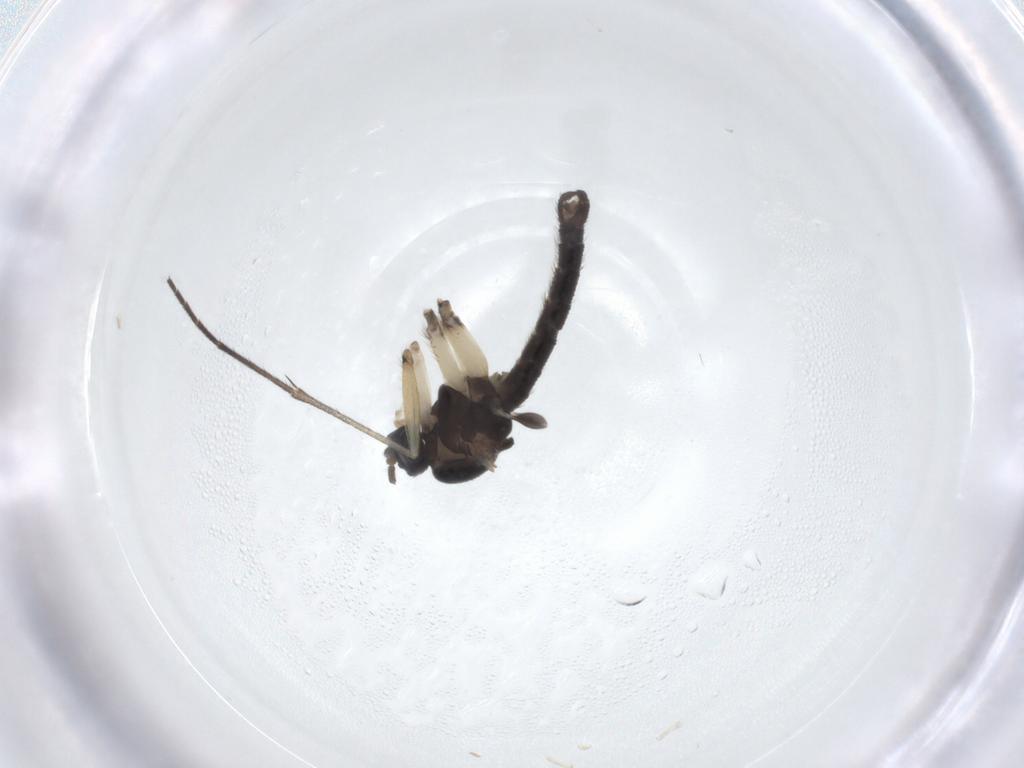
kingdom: Animalia
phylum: Arthropoda
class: Insecta
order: Diptera
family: Sciaridae
